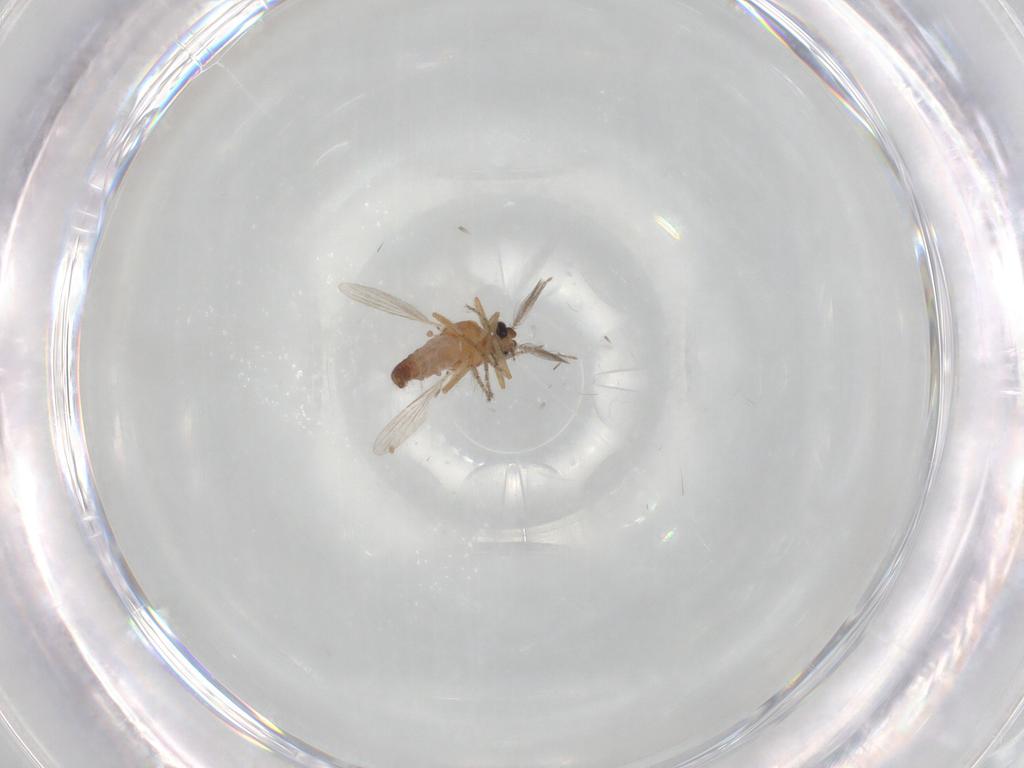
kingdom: Animalia
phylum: Arthropoda
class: Insecta
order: Diptera
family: Ceratopogonidae
